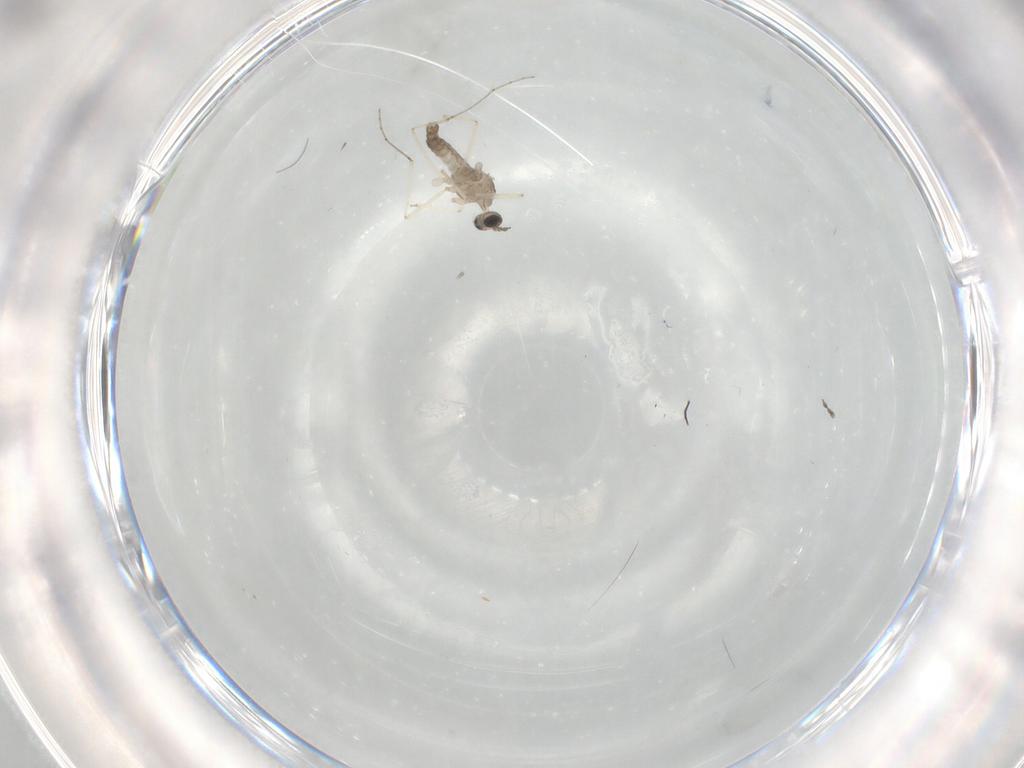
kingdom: Animalia
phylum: Arthropoda
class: Insecta
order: Diptera
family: Cecidomyiidae
